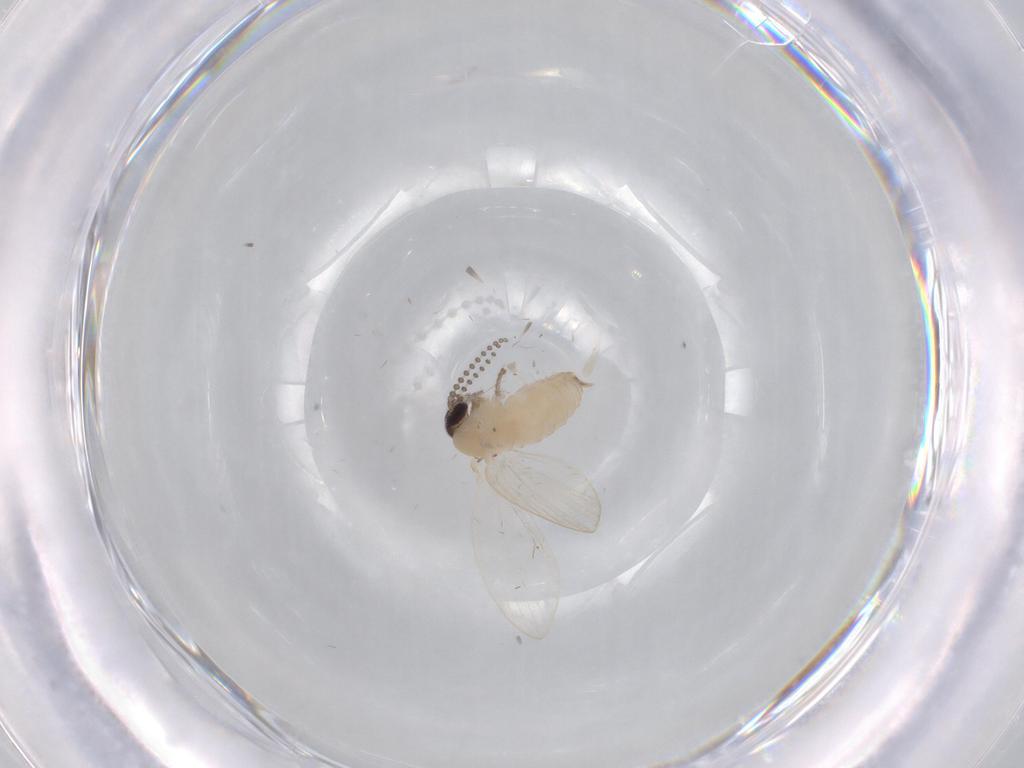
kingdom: Animalia
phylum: Arthropoda
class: Insecta
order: Diptera
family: Psychodidae
